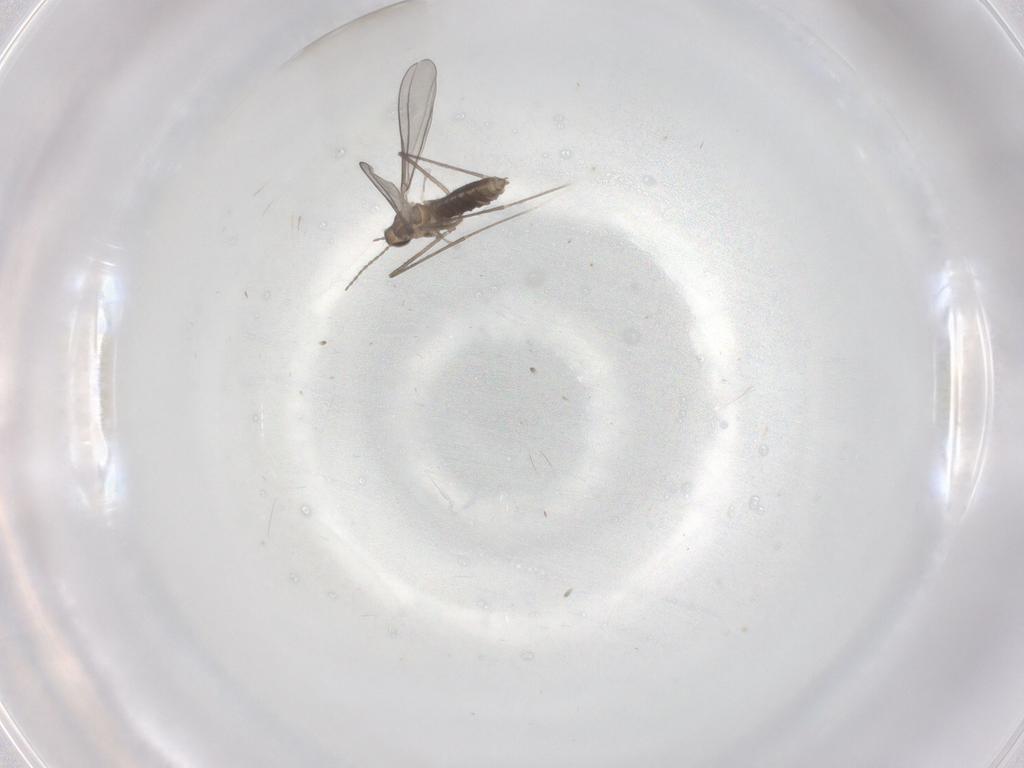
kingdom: Animalia
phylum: Arthropoda
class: Insecta
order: Diptera
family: Cecidomyiidae
